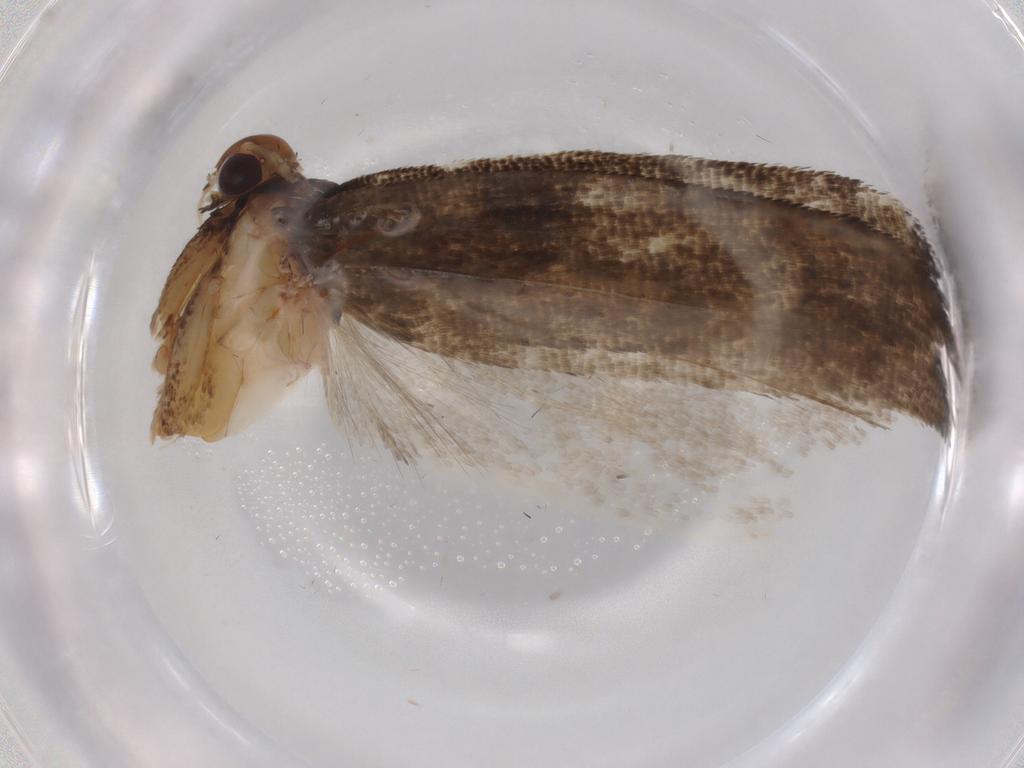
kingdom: Animalia
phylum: Arthropoda
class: Insecta
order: Lepidoptera
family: Gelechiidae
